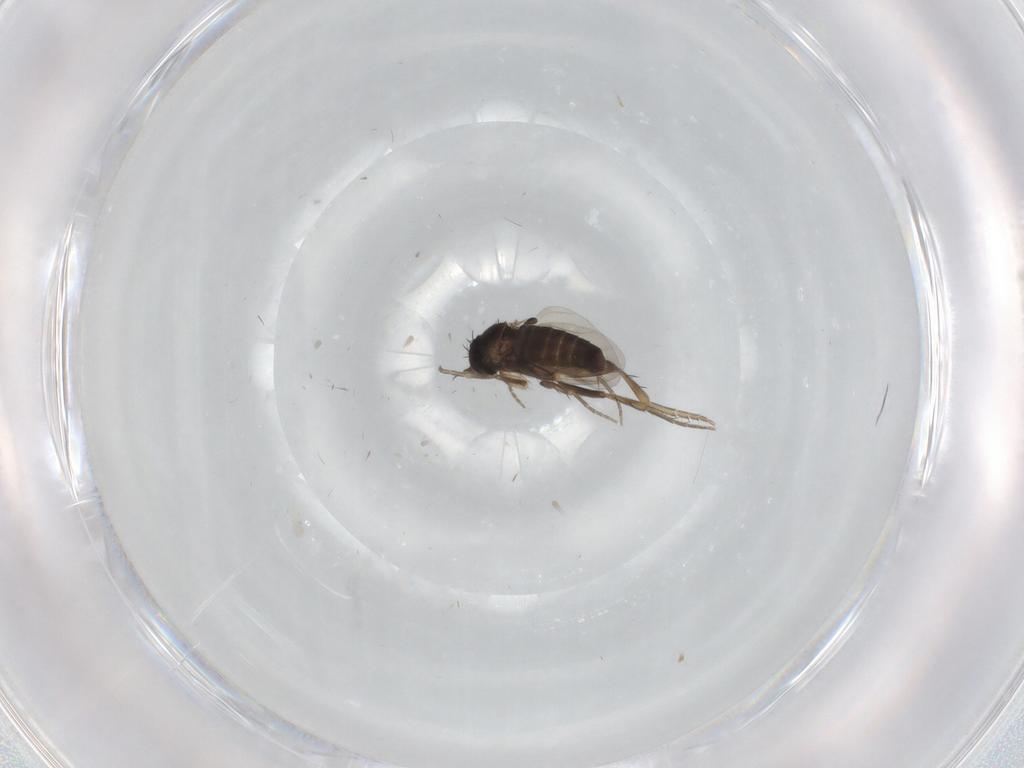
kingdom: Animalia
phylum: Arthropoda
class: Insecta
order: Diptera
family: Phoridae
